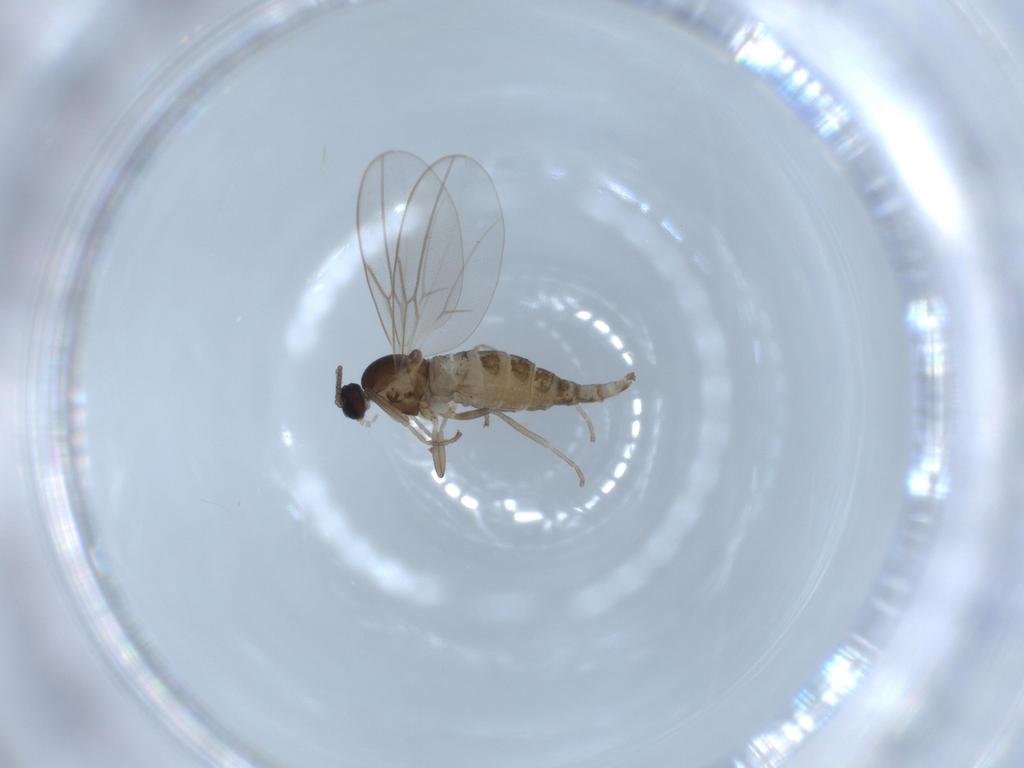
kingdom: Animalia
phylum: Arthropoda
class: Insecta
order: Diptera
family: Cecidomyiidae
